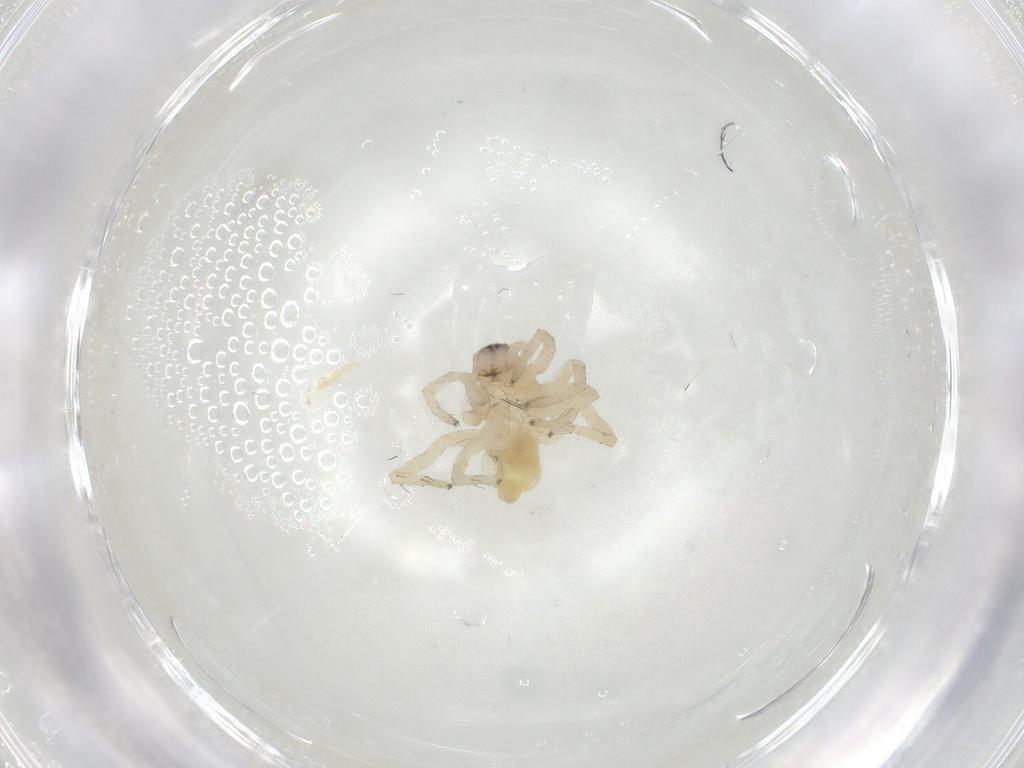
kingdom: Animalia
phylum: Arthropoda
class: Arachnida
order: Araneae
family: Clubionidae
